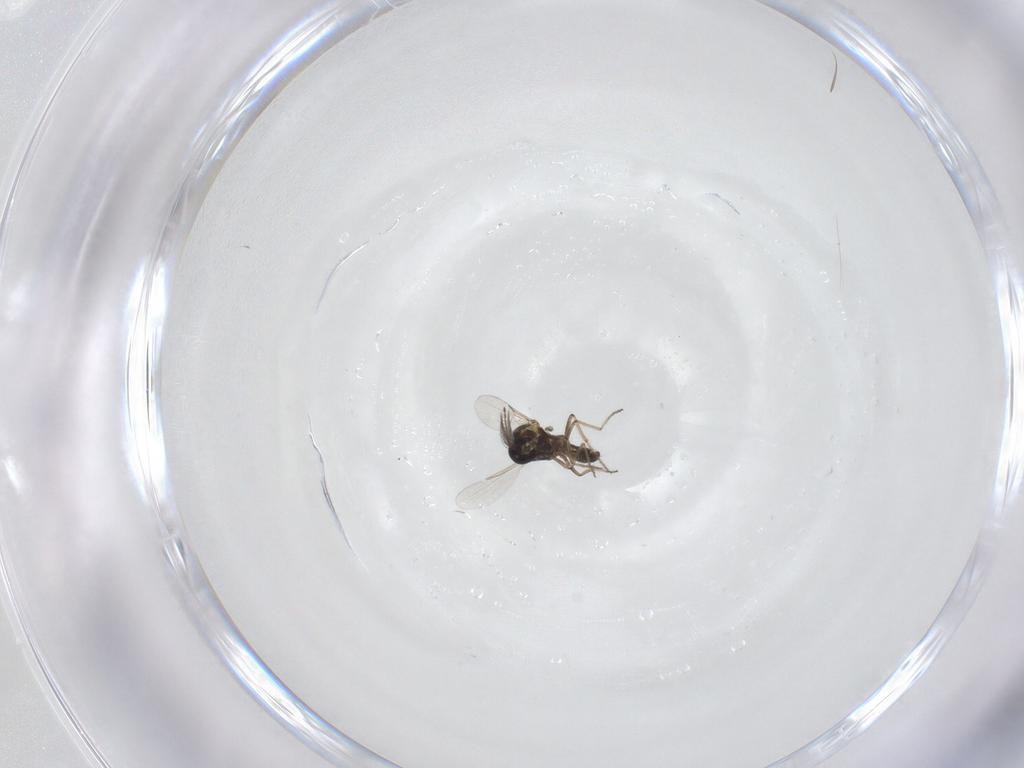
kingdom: Animalia
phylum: Arthropoda
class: Insecta
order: Diptera
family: Ceratopogonidae
